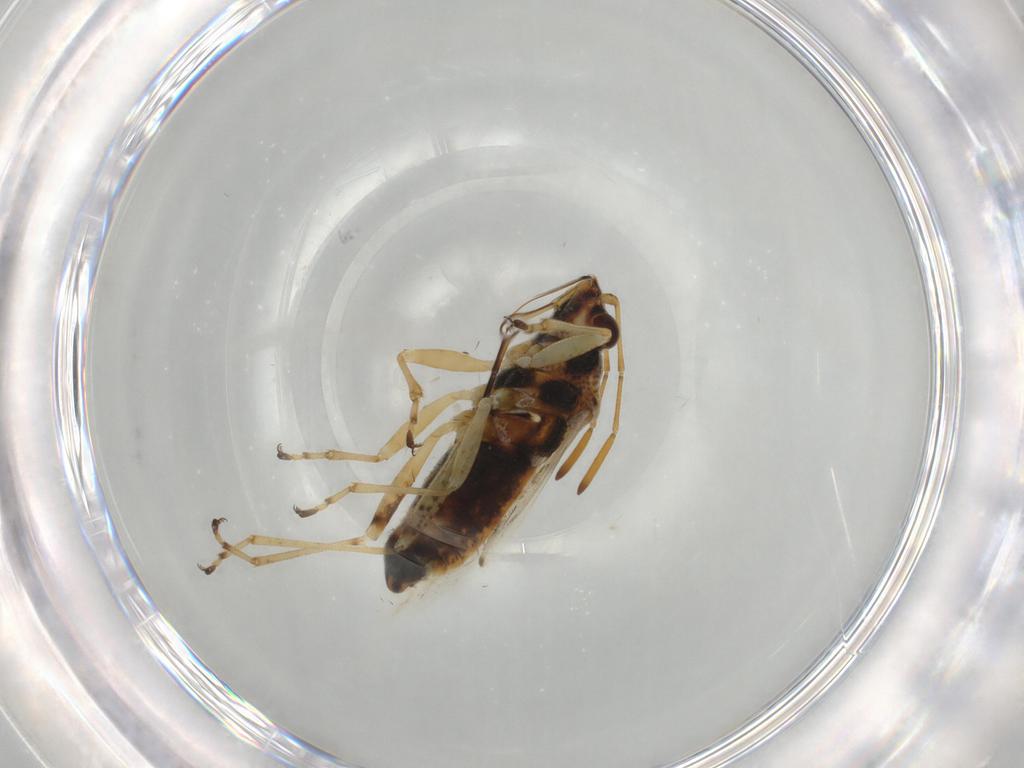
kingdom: Animalia
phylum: Arthropoda
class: Insecta
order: Hemiptera
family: Lygaeidae
